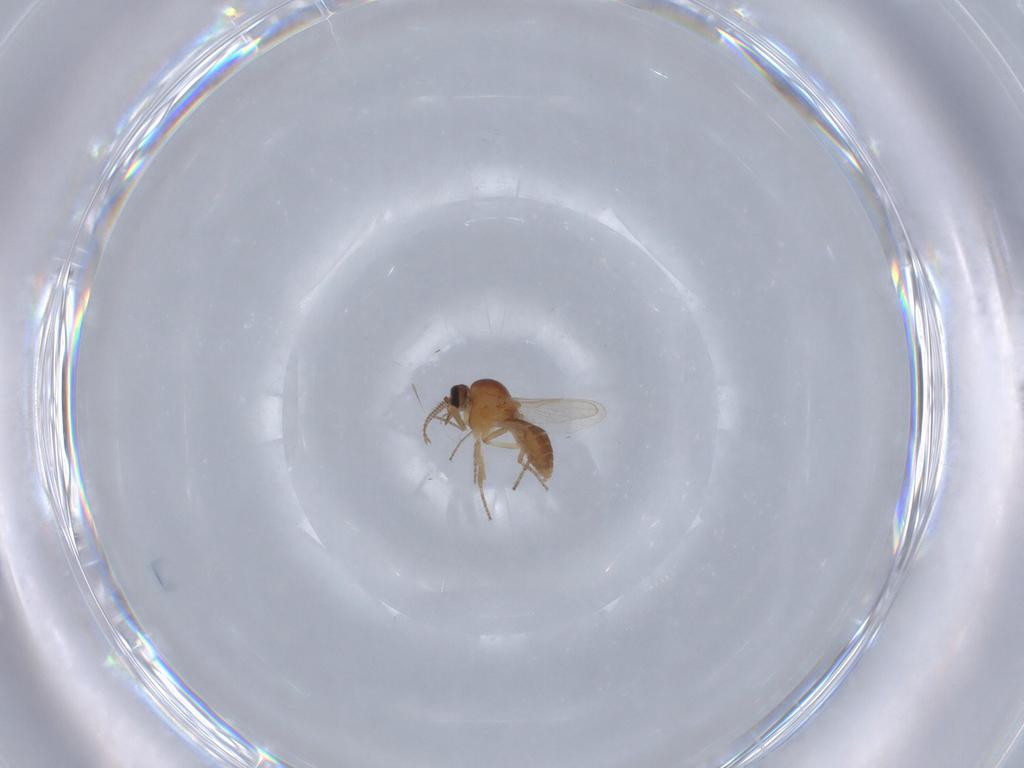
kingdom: Animalia
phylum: Arthropoda
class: Insecta
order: Diptera
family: Ceratopogonidae
